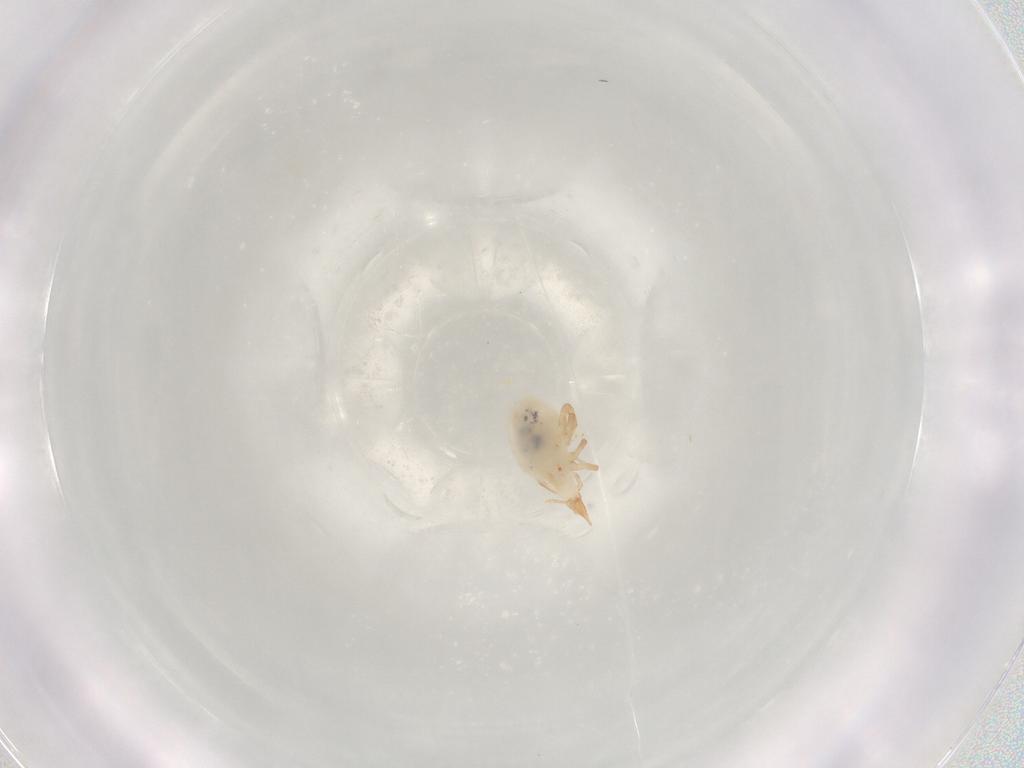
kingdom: Animalia
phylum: Arthropoda
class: Arachnida
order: Trombidiformes
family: Bdellidae
